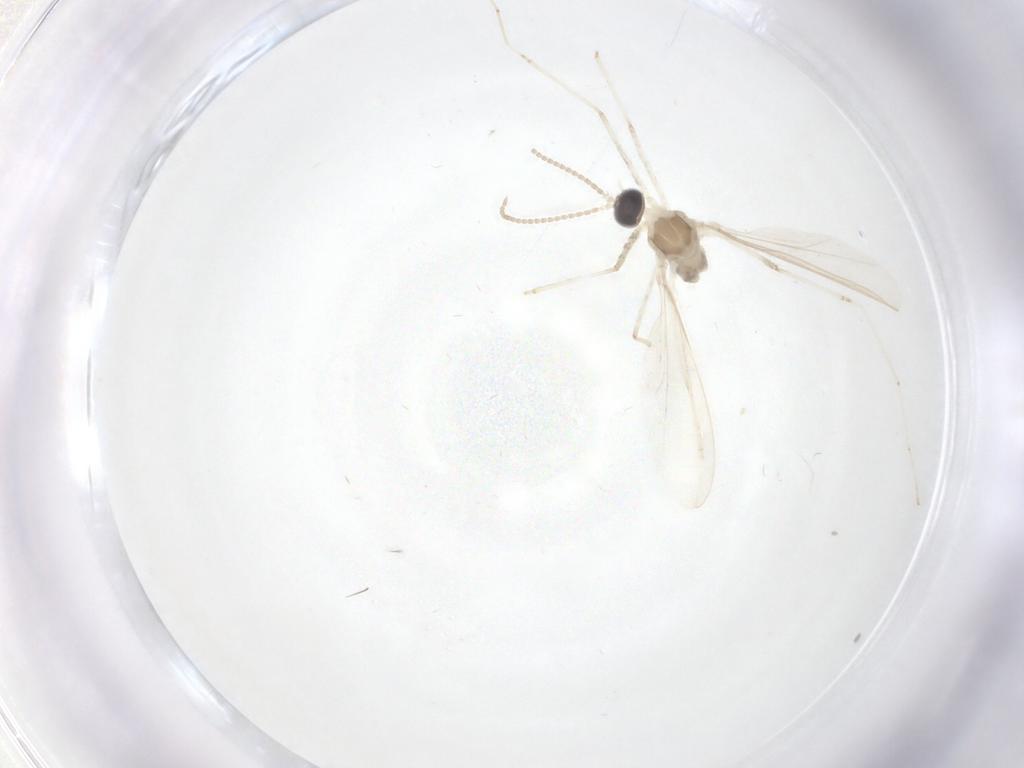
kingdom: Animalia
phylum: Arthropoda
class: Insecta
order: Diptera
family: Cecidomyiidae
